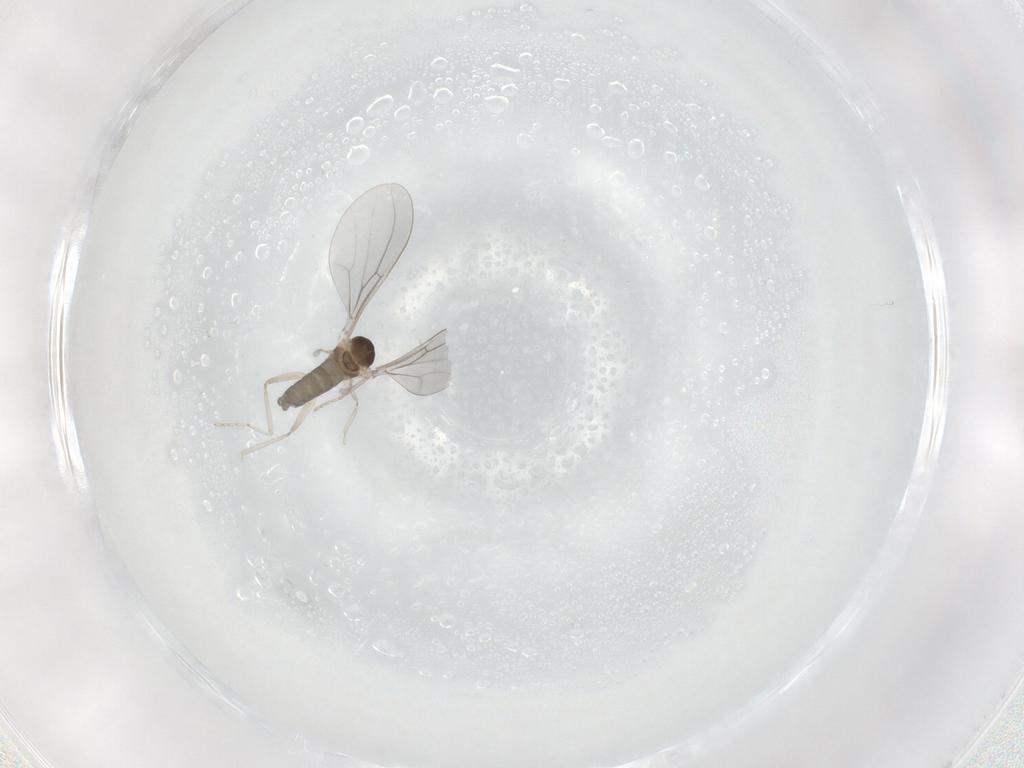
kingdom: Animalia
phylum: Arthropoda
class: Insecta
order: Diptera
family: Cecidomyiidae
